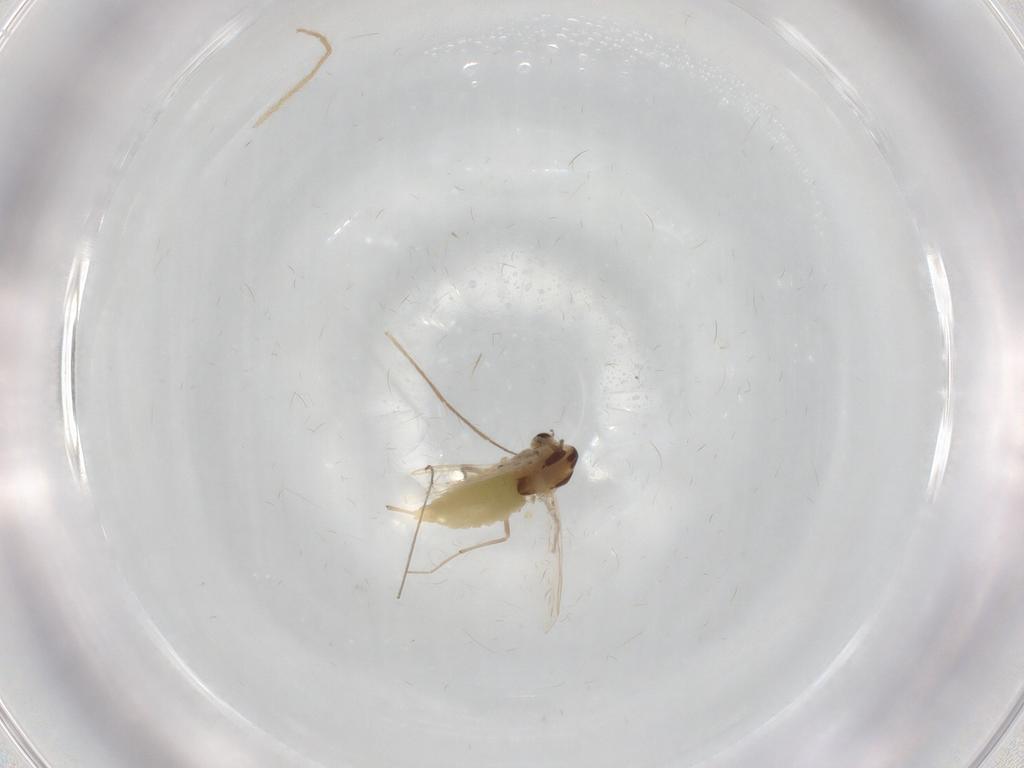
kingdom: Animalia
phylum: Arthropoda
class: Insecta
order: Diptera
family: Chironomidae
